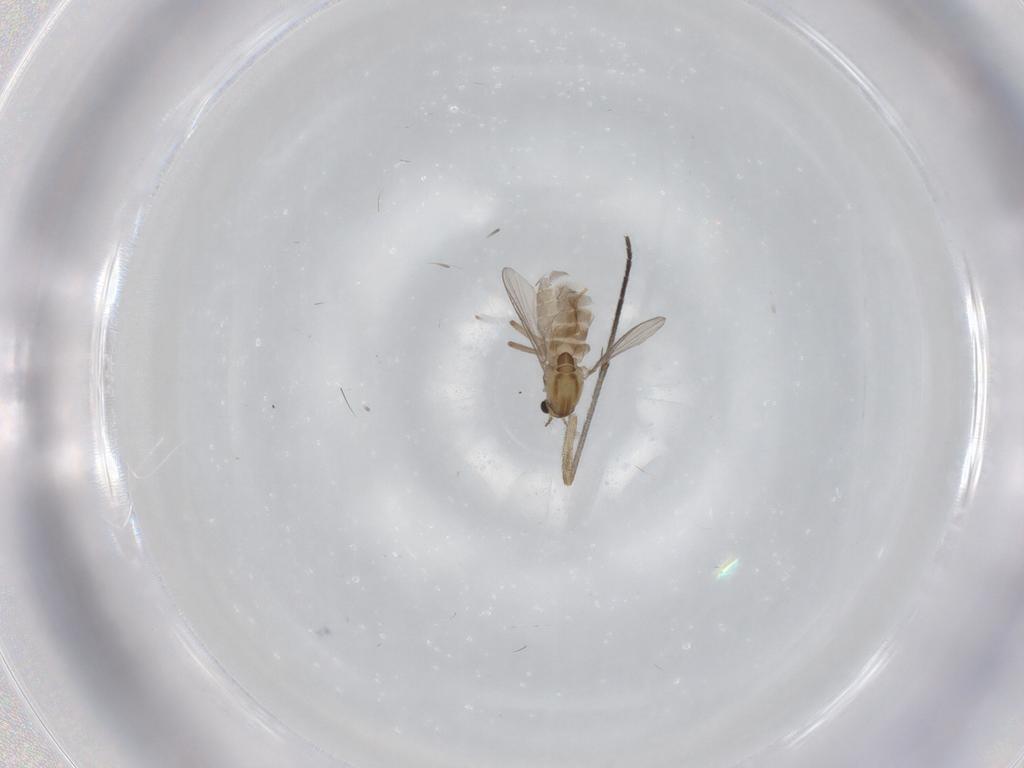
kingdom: Animalia
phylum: Arthropoda
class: Insecta
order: Diptera
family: Chironomidae
